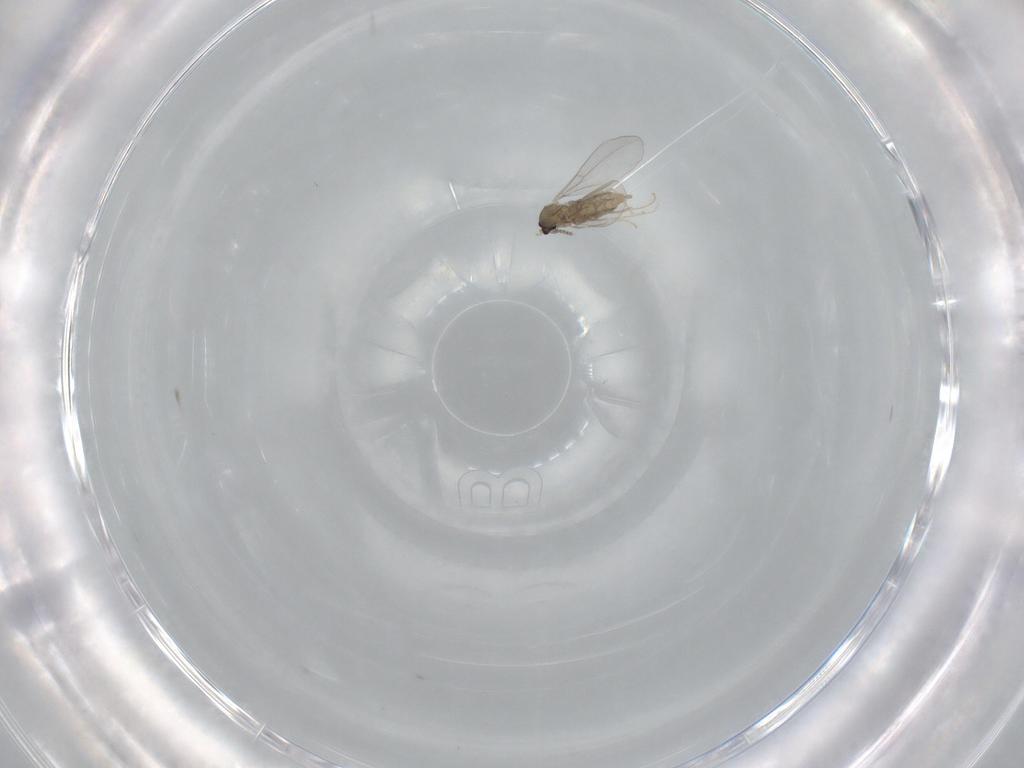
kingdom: Animalia
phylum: Arthropoda
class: Insecta
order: Diptera
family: Cecidomyiidae
